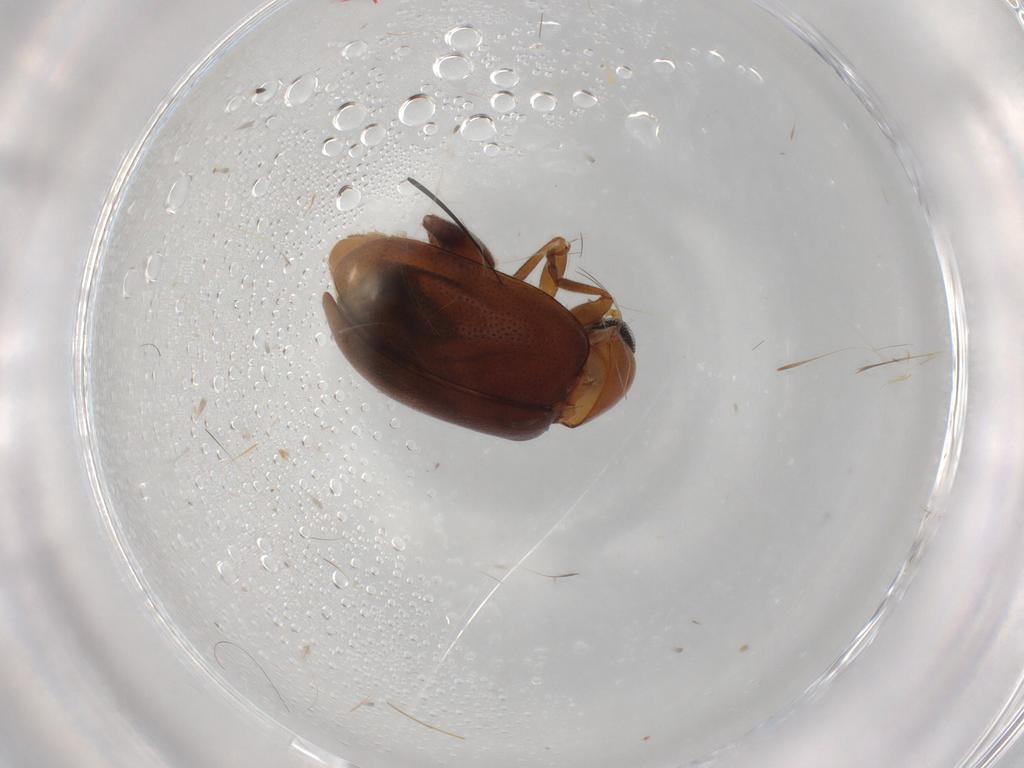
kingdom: Animalia
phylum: Arthropoda
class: Insecta
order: Coleoptera
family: Chrysomelidae
